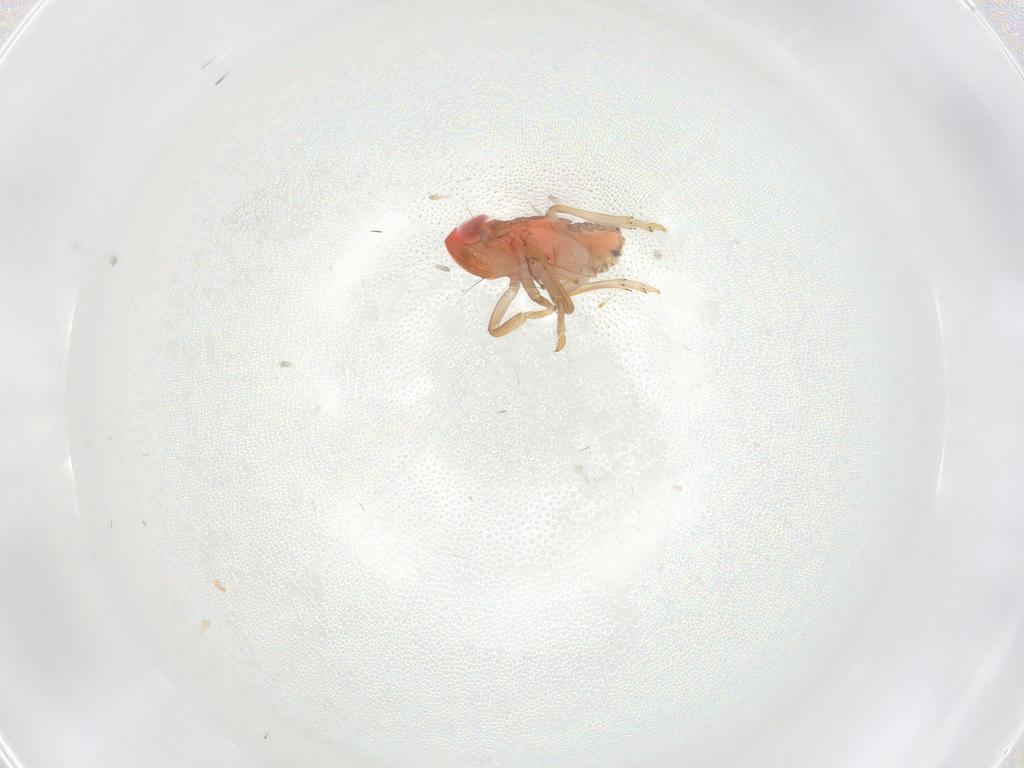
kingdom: Animalia
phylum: Arthropoda
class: Insecta
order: Hemiptera
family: Issidae
